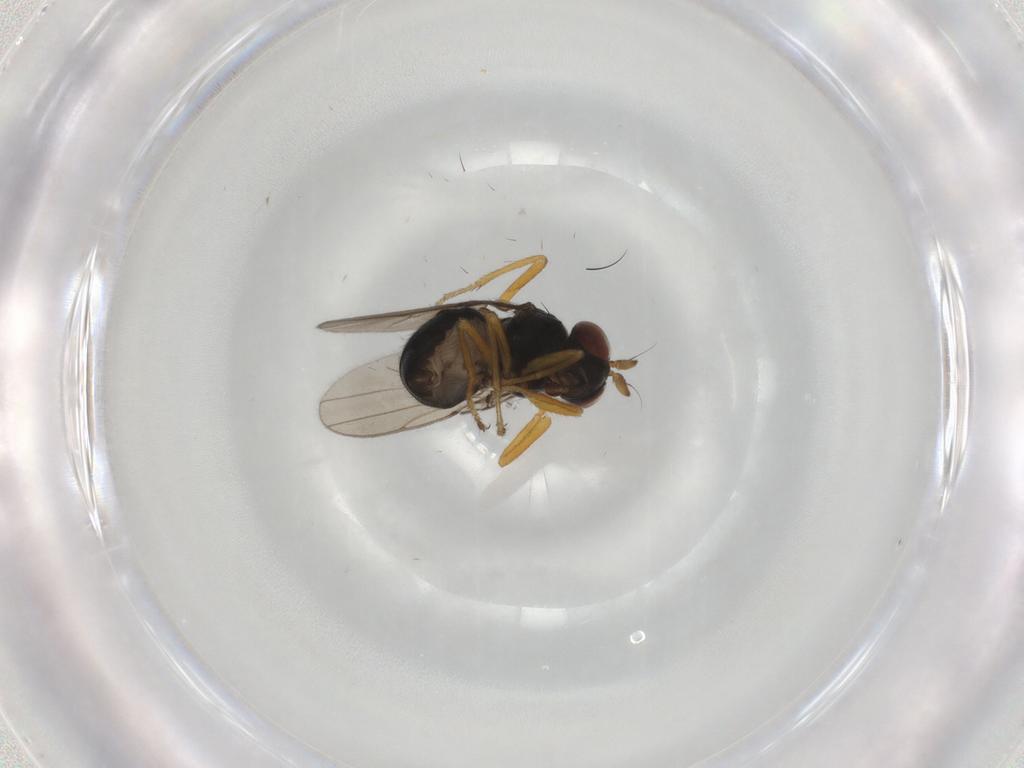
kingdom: Animalia
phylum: Arthropoda
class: Insecta
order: Diptera
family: Ephydridae
